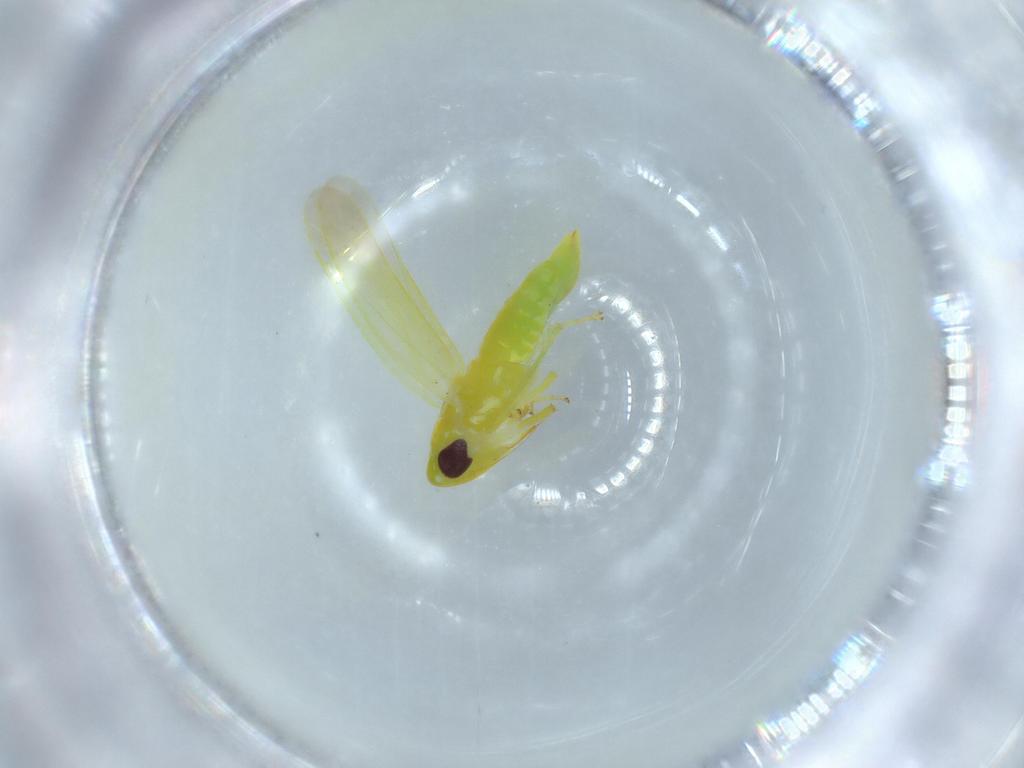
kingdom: Animalia
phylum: Arthropoda
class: Insecta
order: Hemiptera
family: Cicadellidae
